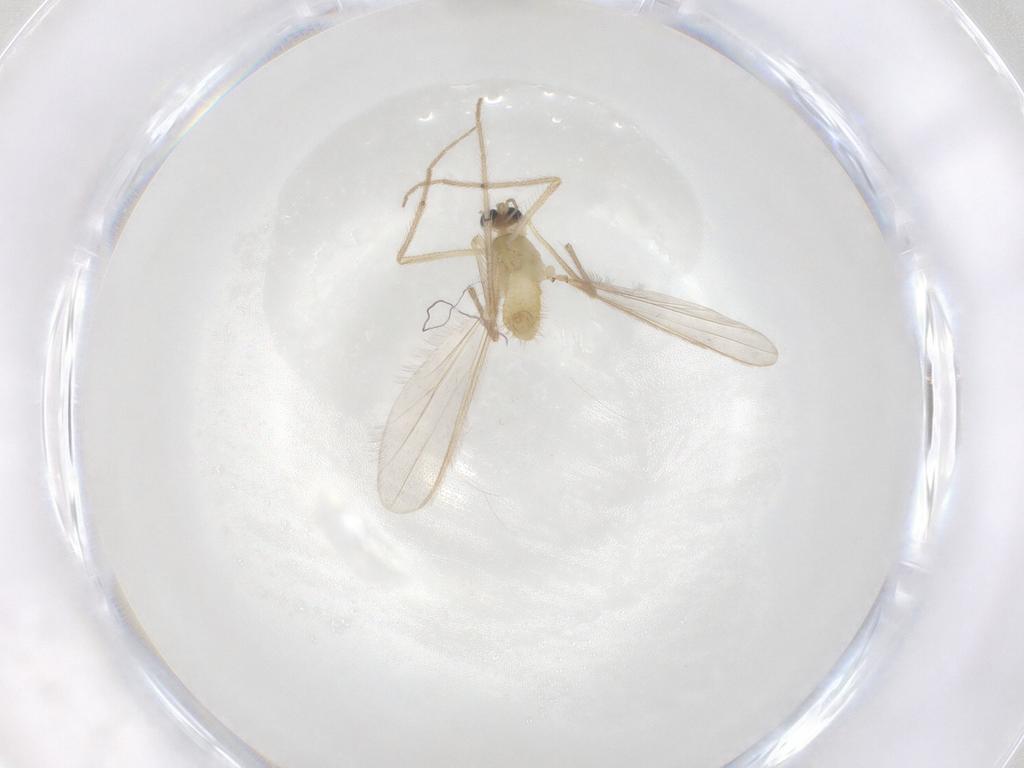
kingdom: Animalia
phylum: Arthropoda
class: Insecta
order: Diptera
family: Chironomidae
